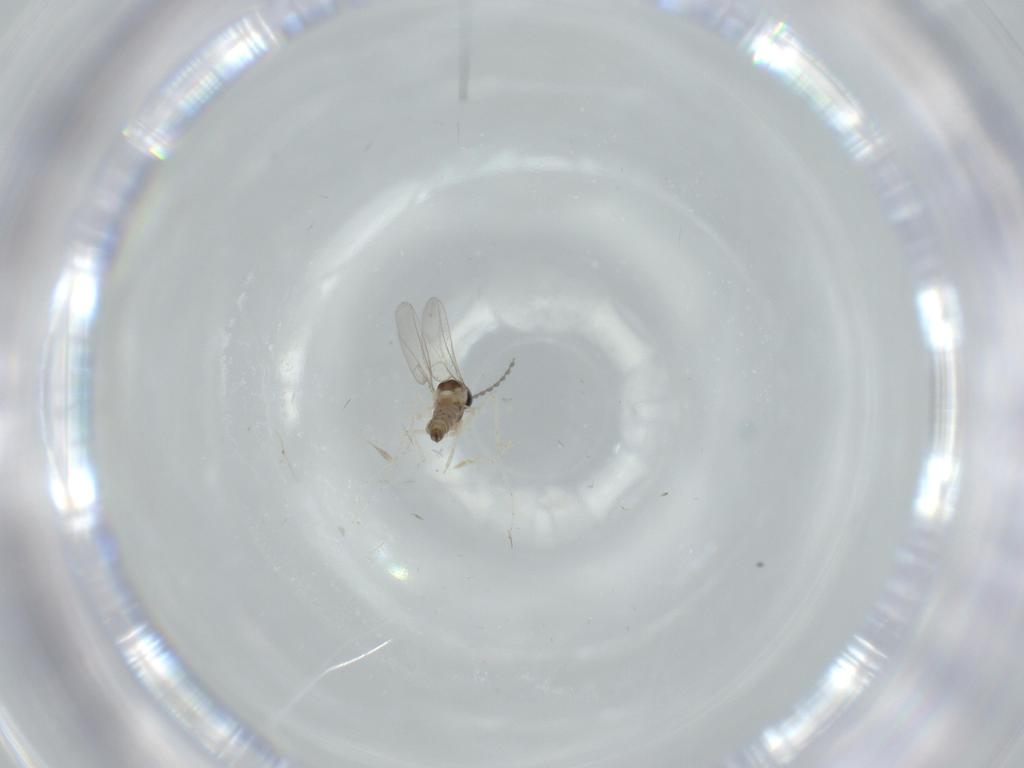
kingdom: Animalia
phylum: Arthropoda
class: Insecta
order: Diptera
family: Cecidomyiidae
